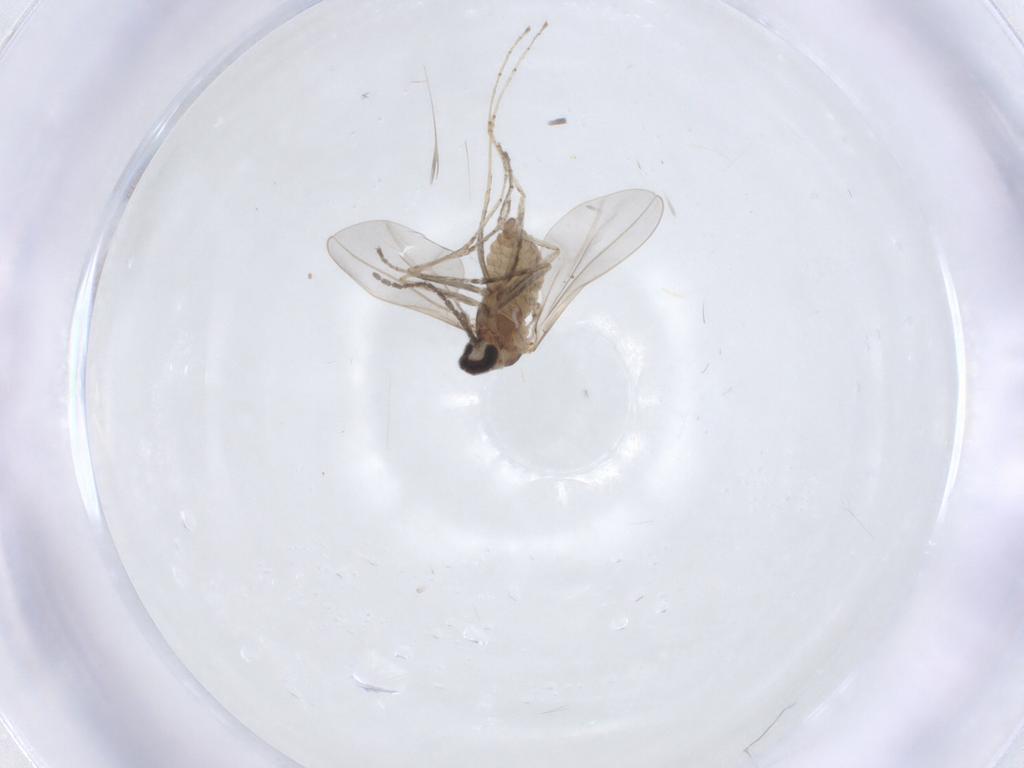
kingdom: Animalia
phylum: Arthropoda
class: Insecta
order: Diptera
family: Cecidomyiidae
